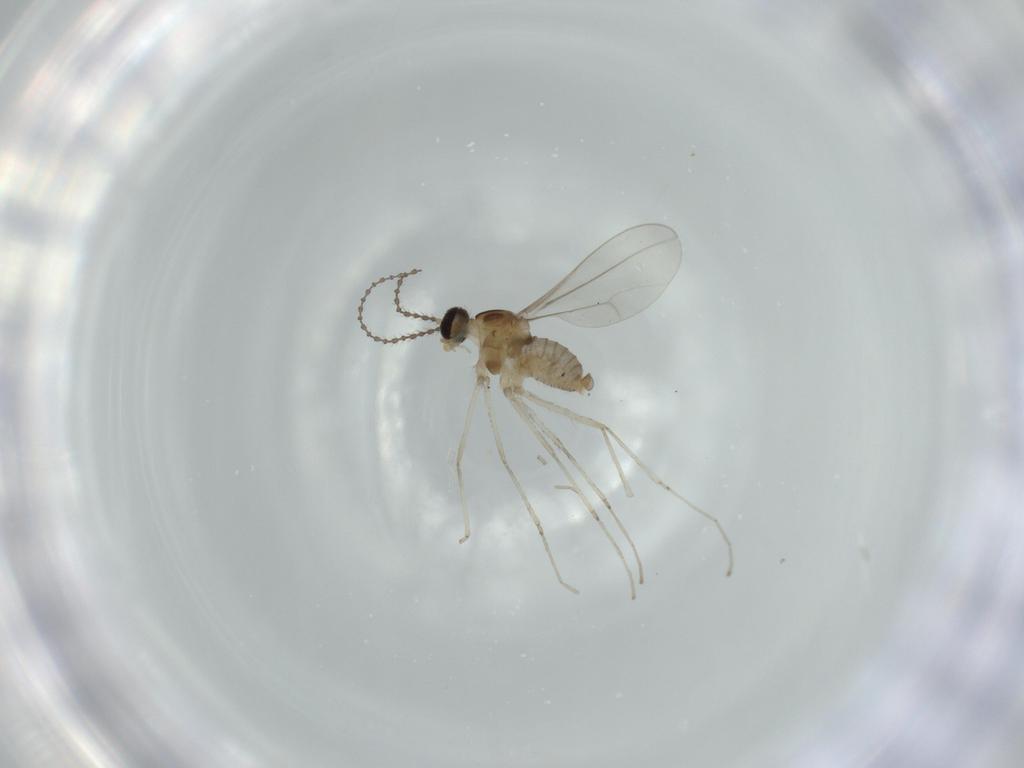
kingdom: Animalia
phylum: Arthropoda
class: Insecta
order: Diptera
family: Cecidomyiidae
